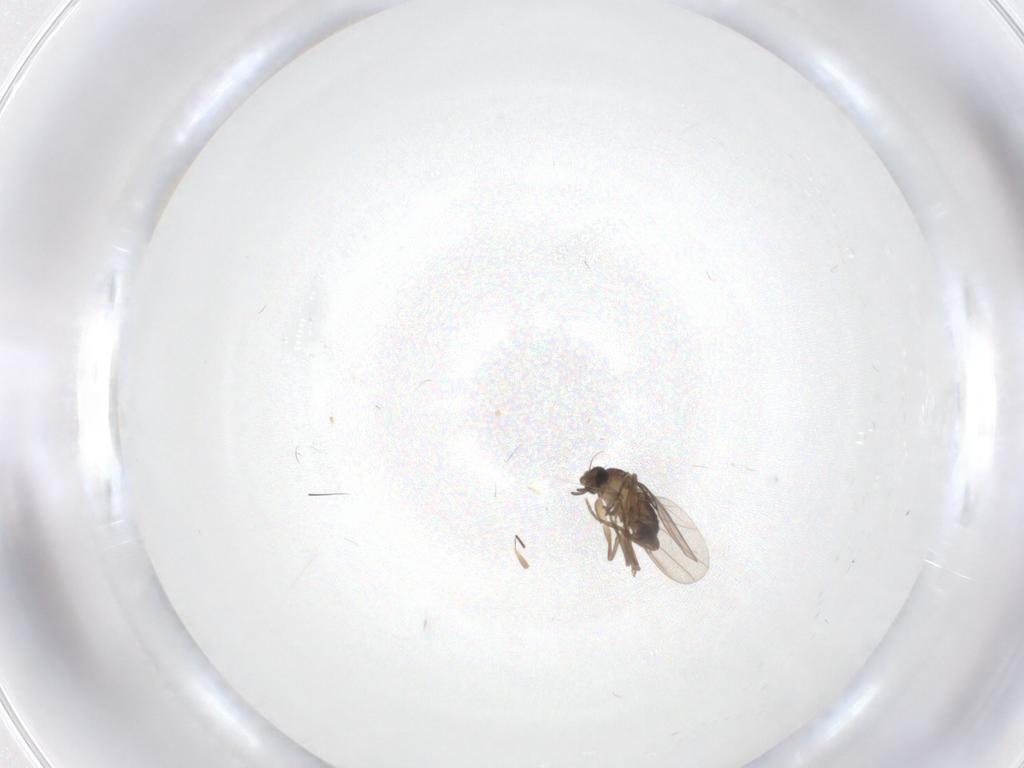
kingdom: Animalia
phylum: Arthropoda
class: Insecta
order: Diptera
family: Phoridae
